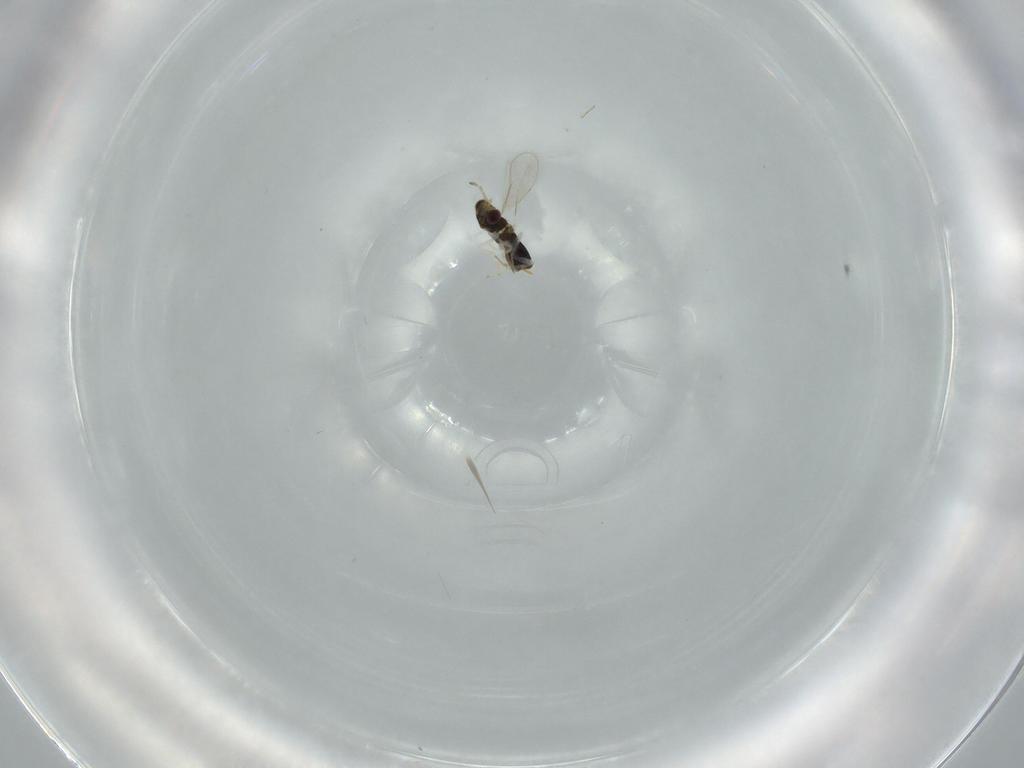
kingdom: Animalia
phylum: Arthropoda
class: Insecta
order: Hymenoptera
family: Aphelinidae
